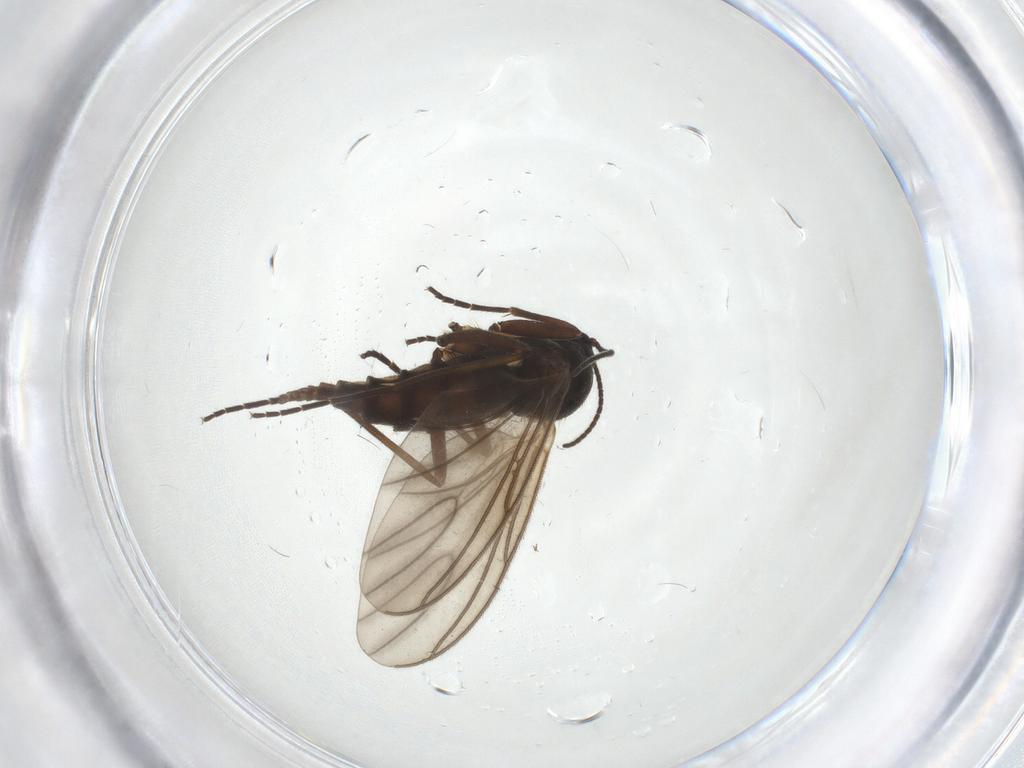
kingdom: Animalia
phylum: Arthropoda
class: Insecta
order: Diptera
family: Sciaridae
